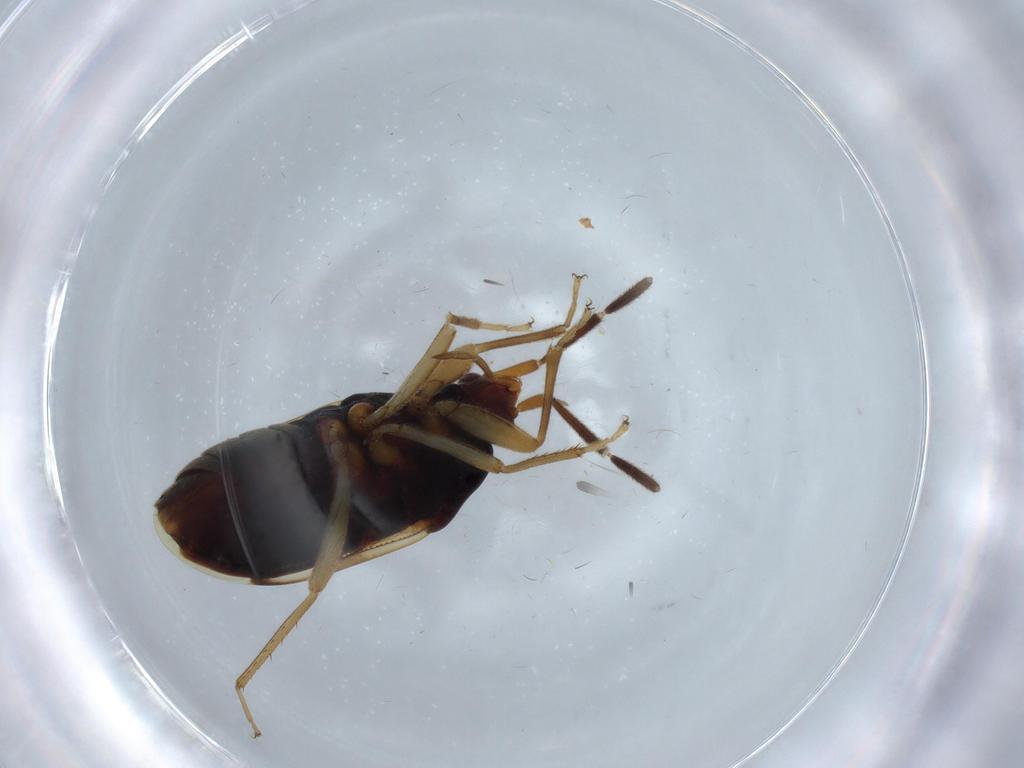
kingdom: Animalia
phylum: Arthropoda
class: Insecta
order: Hemiptera
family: Rhyparochromidae
